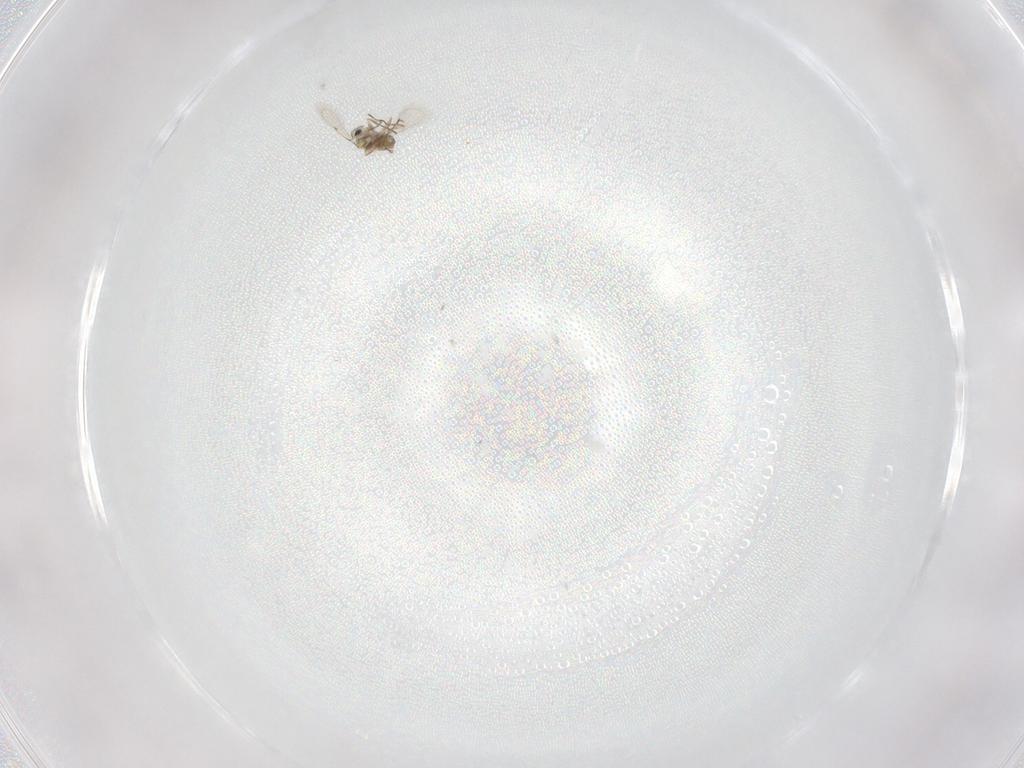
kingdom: Animalia
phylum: Arthropoda
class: Insecta
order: Hymenoptera
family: Trichogrammatidae
